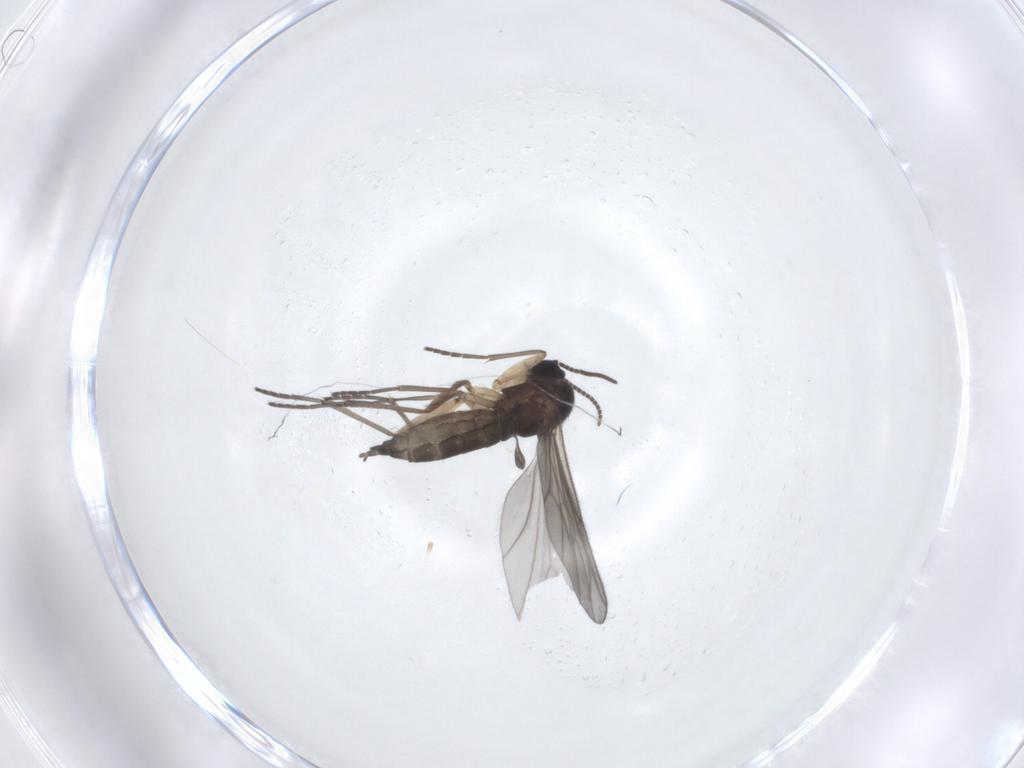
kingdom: Animalia
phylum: Arthropoda
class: Insecta
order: Diptera
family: Sciaridae
